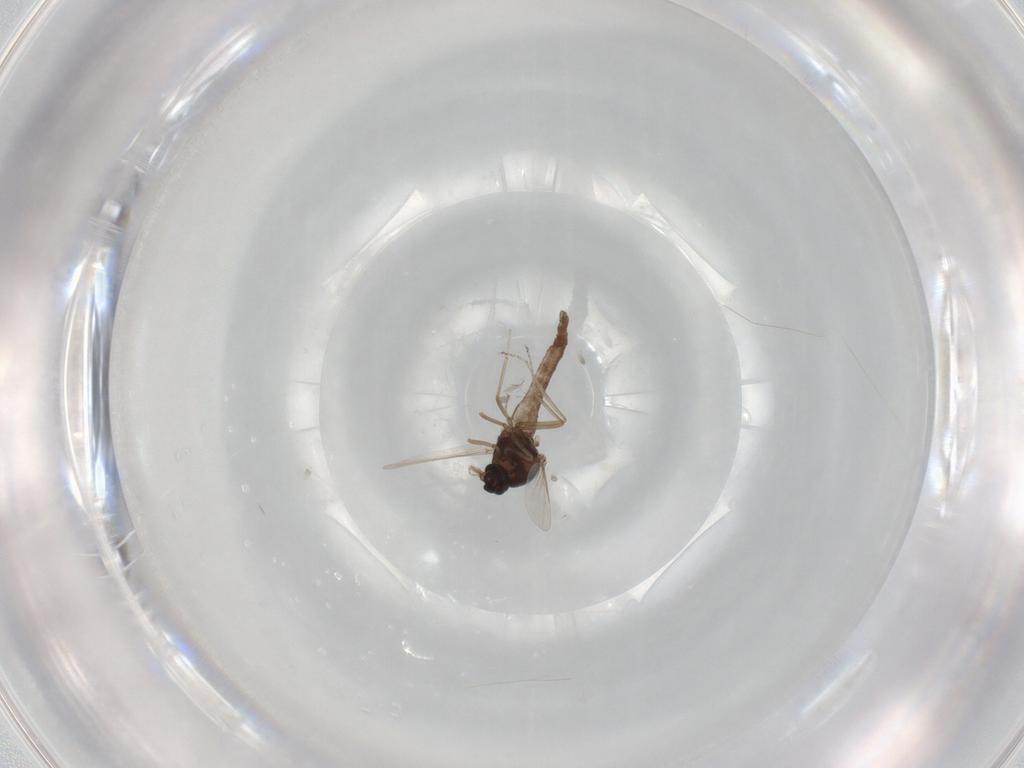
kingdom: Animalia
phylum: Arthropoda
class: Insecta
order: Diptera
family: Ceratopogonidae
